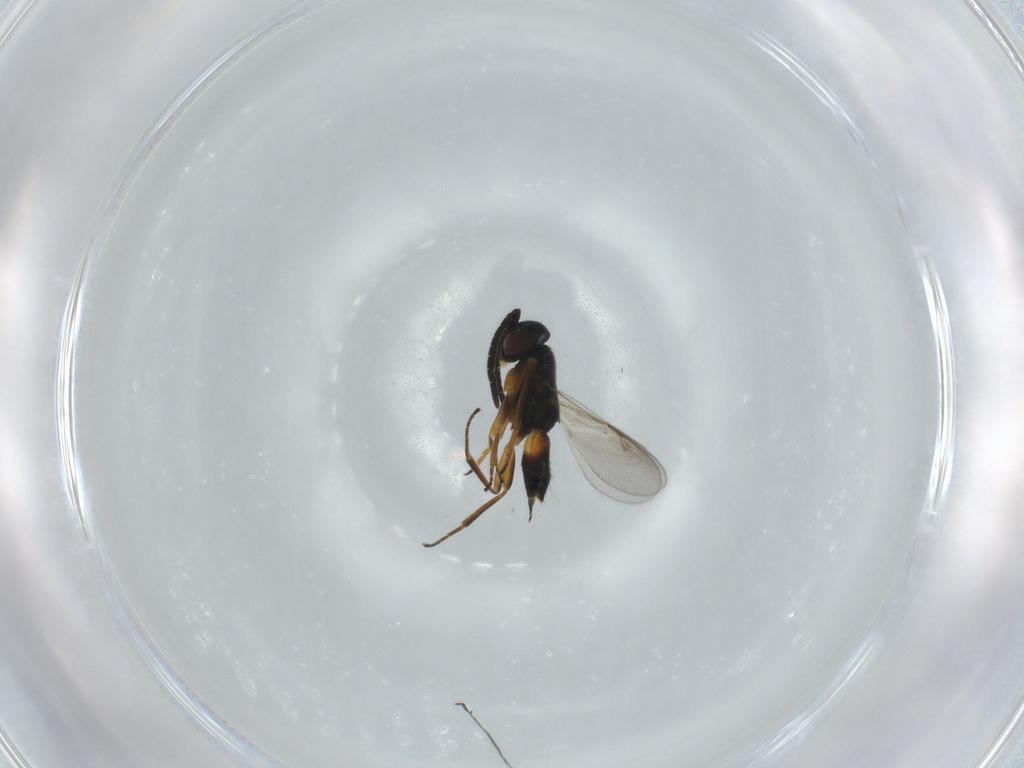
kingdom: Animalia
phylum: Arthropoda
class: Insecta
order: Hymenoptera
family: Encyrtidae
